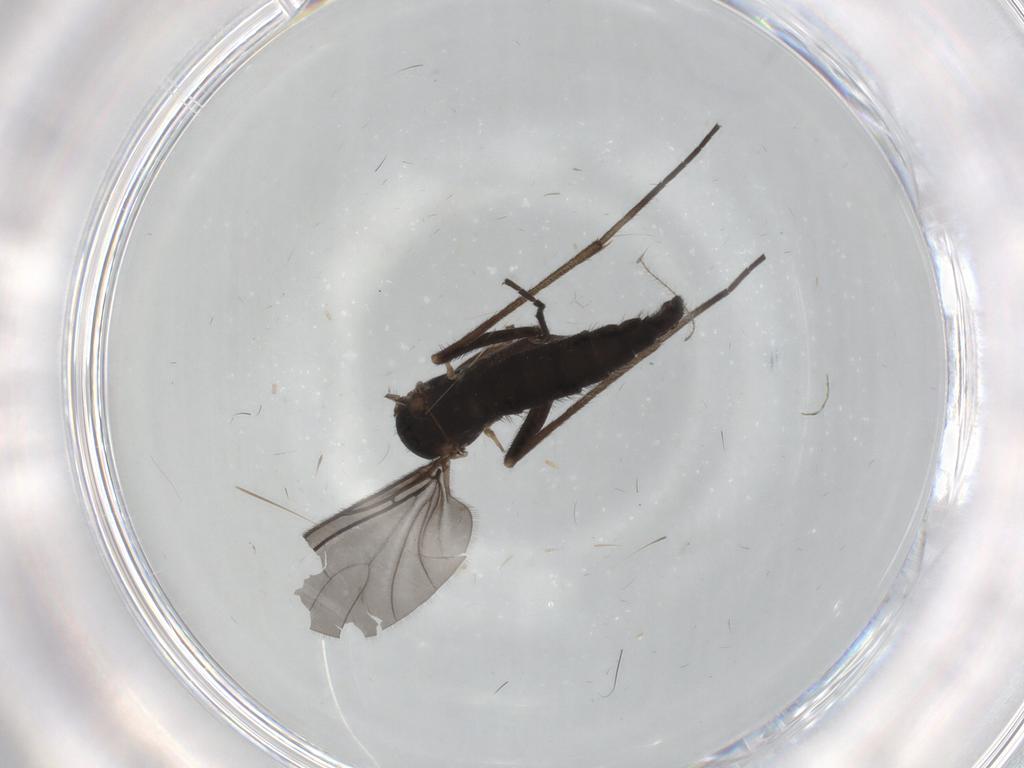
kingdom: Animalia
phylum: Arthropoda
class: Insecta
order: Diptera
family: Sciaridae
